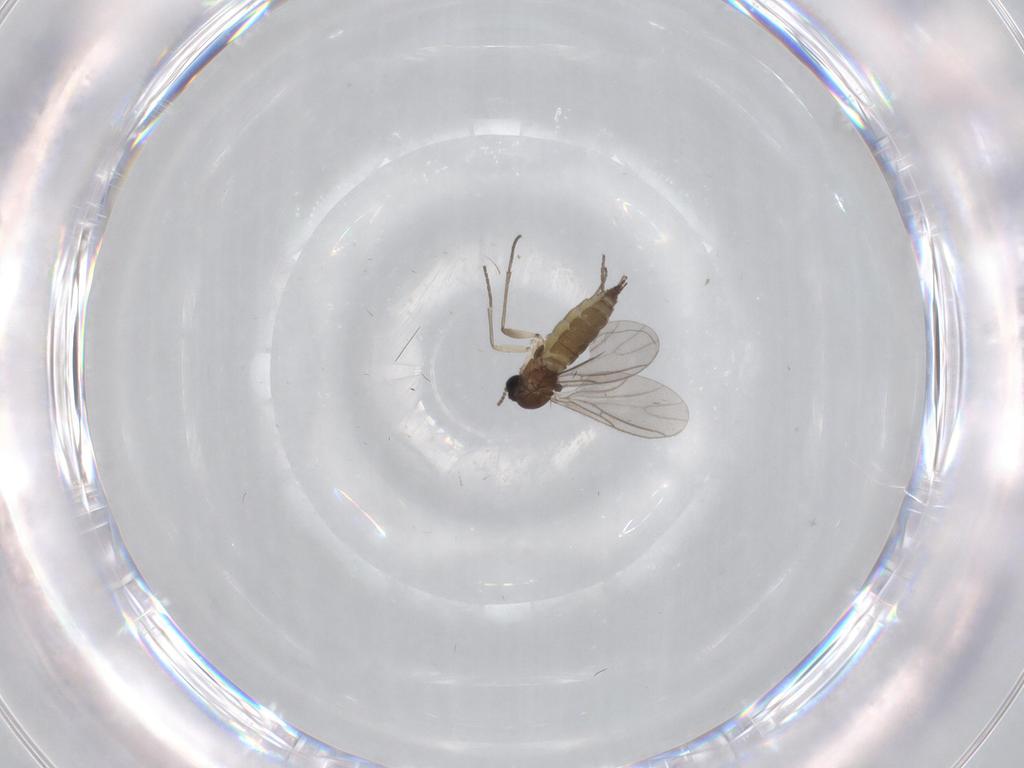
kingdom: Animalia
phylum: Arthropoda
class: Insecta
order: Diptera
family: Sciaridae
